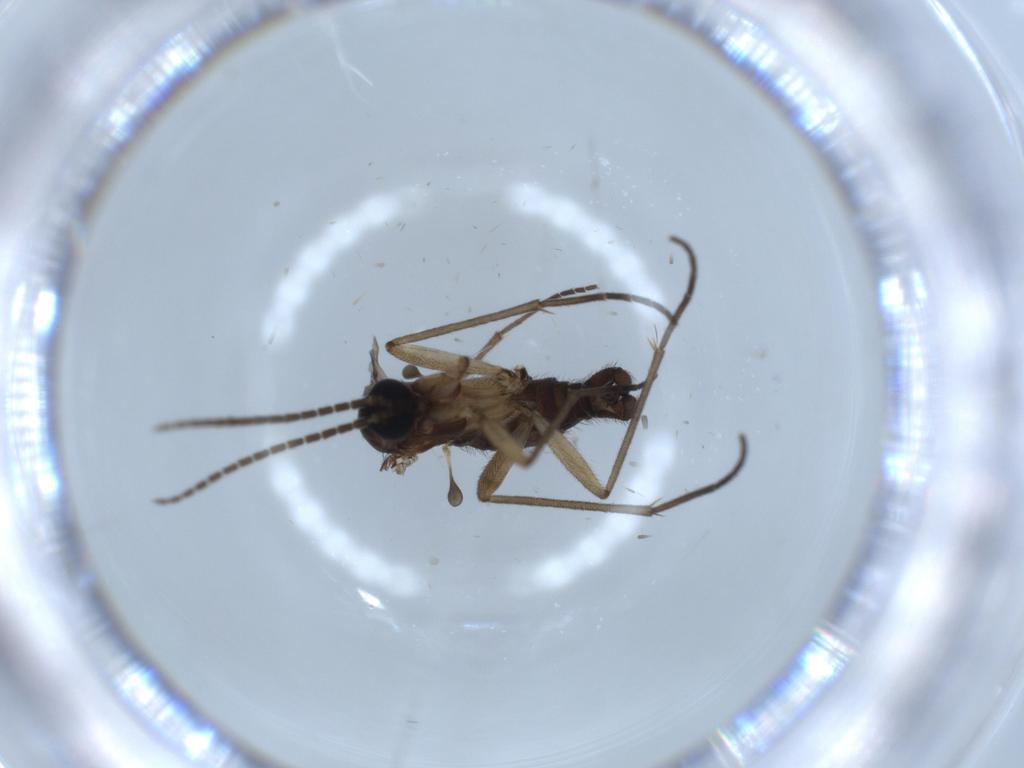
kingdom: Animalia
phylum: Arthropoda
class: Insecta
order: Diptera
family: Sciaridae
